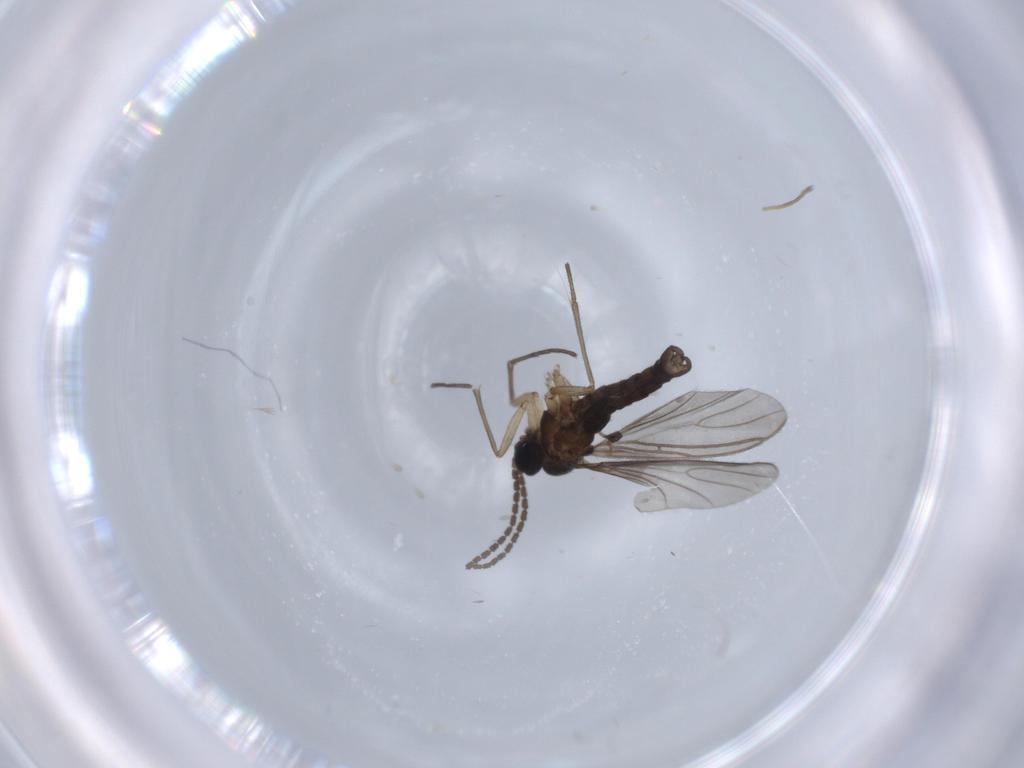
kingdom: Animalia
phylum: Arthropoda
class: Insecta
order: Diptera
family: Sciaridae
